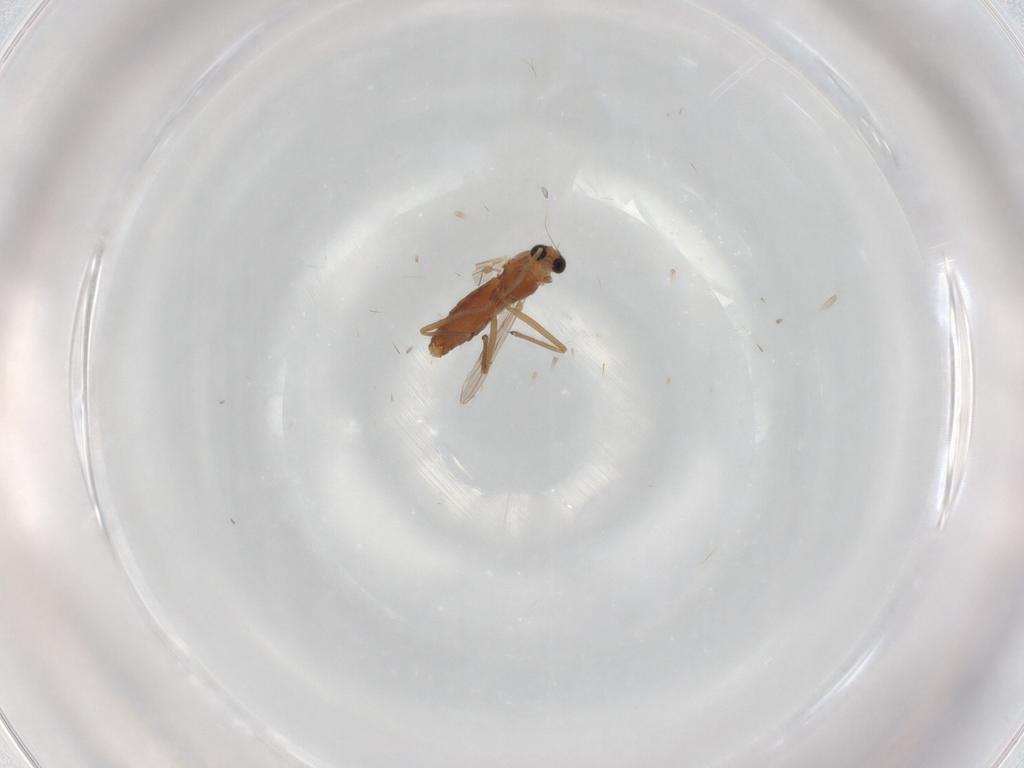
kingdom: Animalia
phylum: Arthropoda
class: Insecta
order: Diptera
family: Chironomidae
